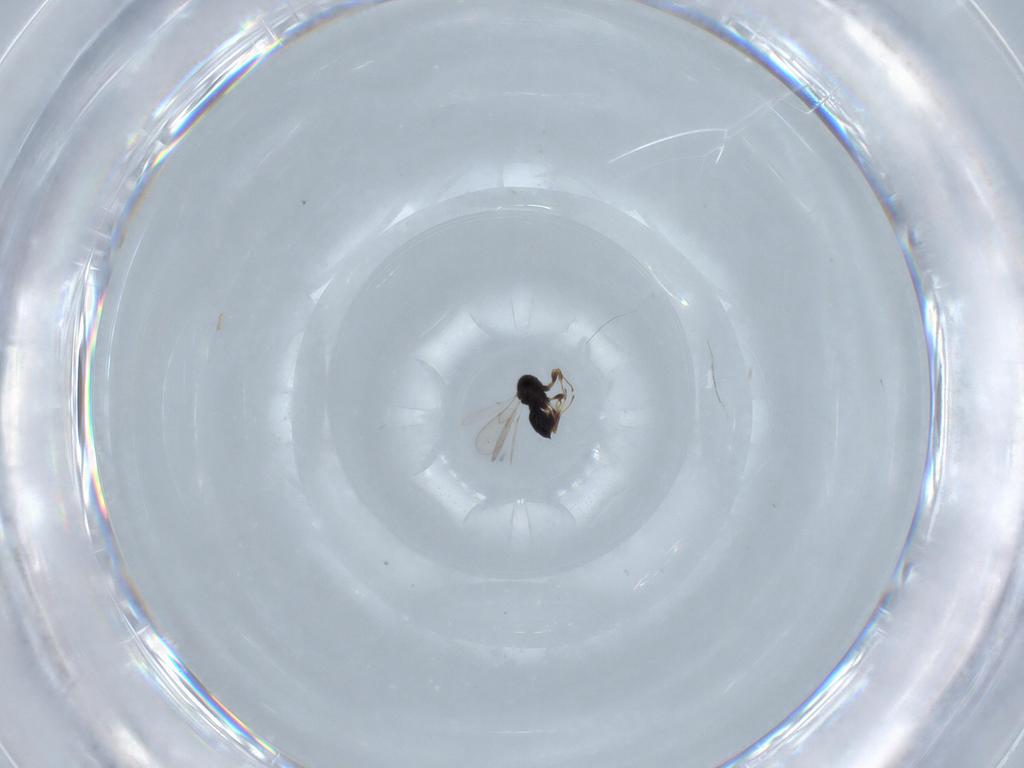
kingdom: Animalia
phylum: Arthropoda
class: Insecta
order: Hymenoptera
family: Scelionidae
